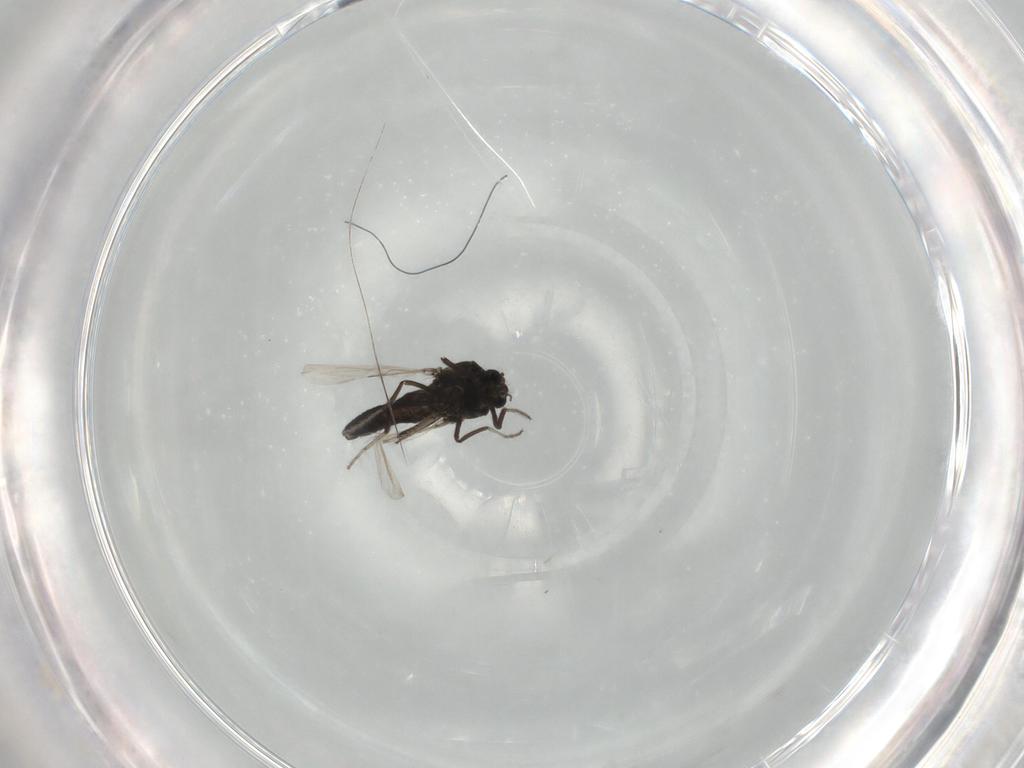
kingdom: Animalia
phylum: Arthropoda
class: Insecta
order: Diptera
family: Ceratopogonidae
